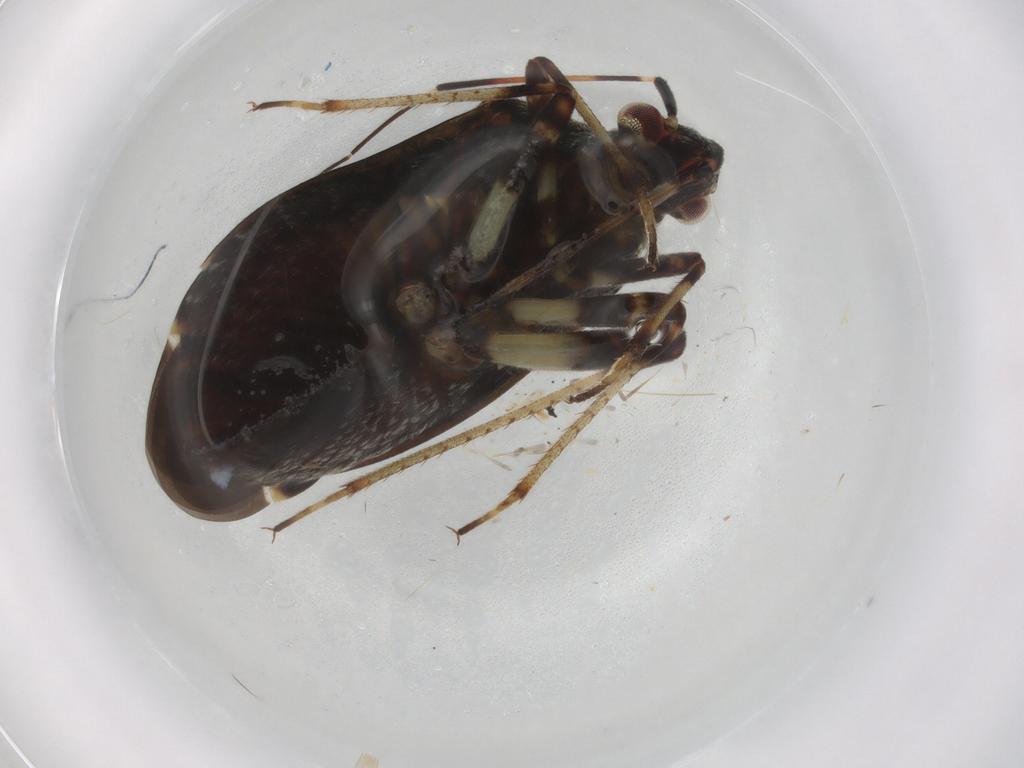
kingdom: Animalia
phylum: Arthropoda
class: Insecta
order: Hemiptera
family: Miridae
